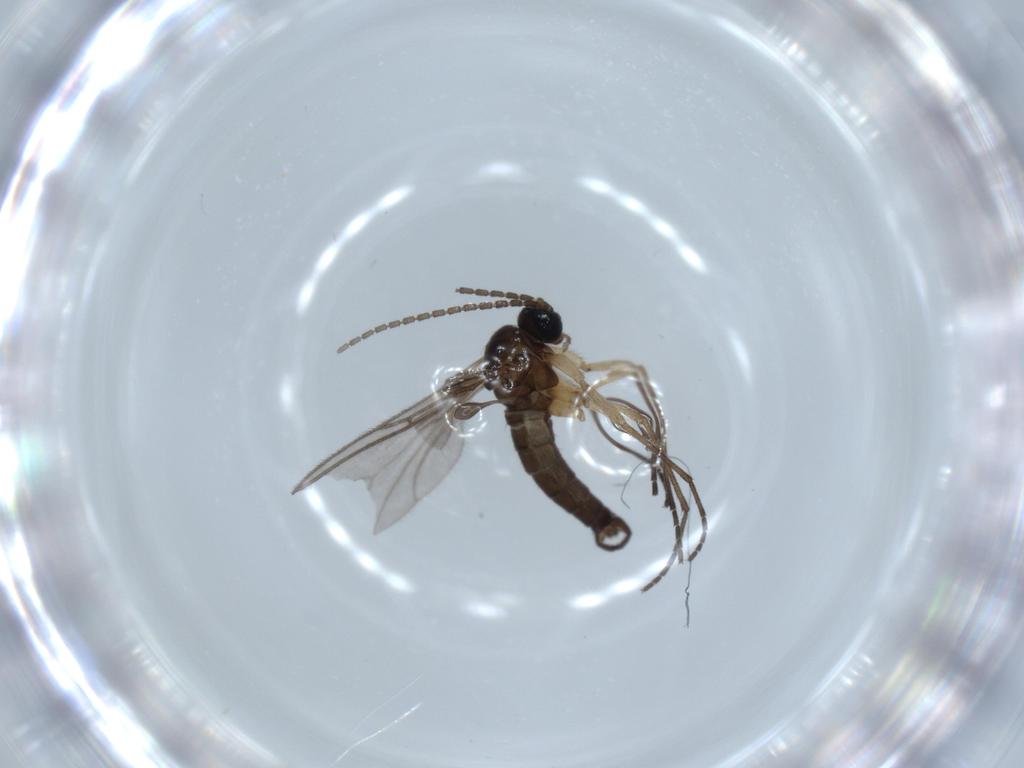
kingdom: Animalia
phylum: Arthropoda
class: Insecta
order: Diptera
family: Sciaridae
